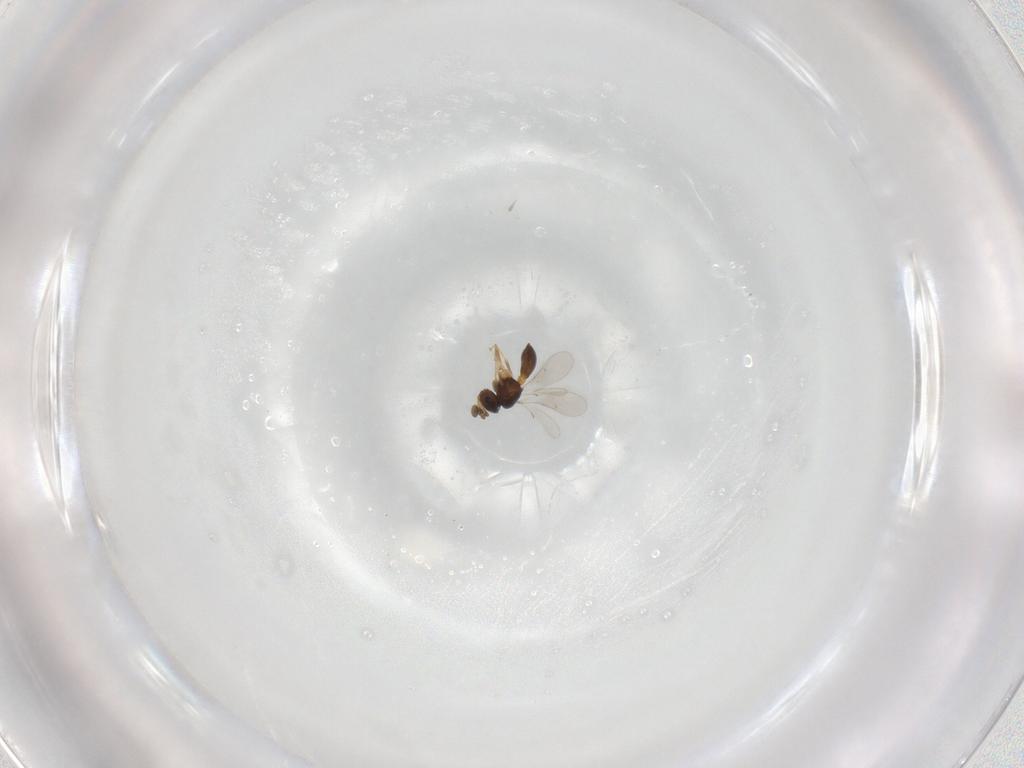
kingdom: Animalia
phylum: Arthropoda
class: Insecta
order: Hymenoptera
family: Scelionidae
